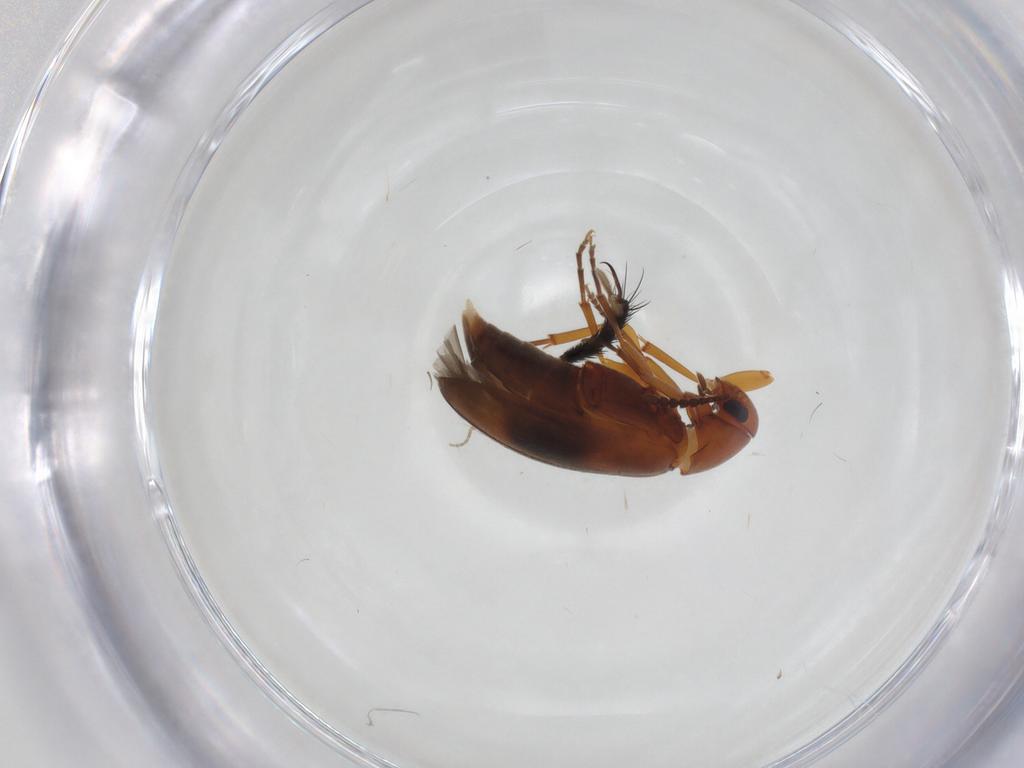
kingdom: Animalia
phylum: Arthropoda
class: Insecta
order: Coleoptera
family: Scraptiidae
